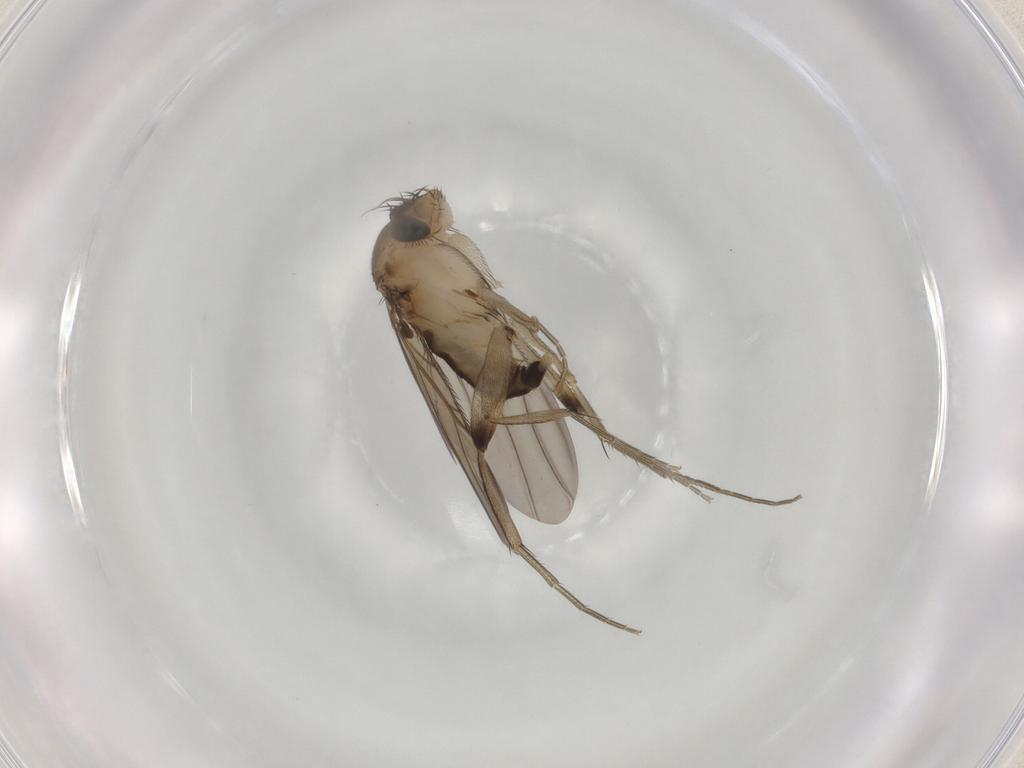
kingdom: Animalia
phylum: Arthropoda
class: Insecta
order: Diptera
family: Phoridae
